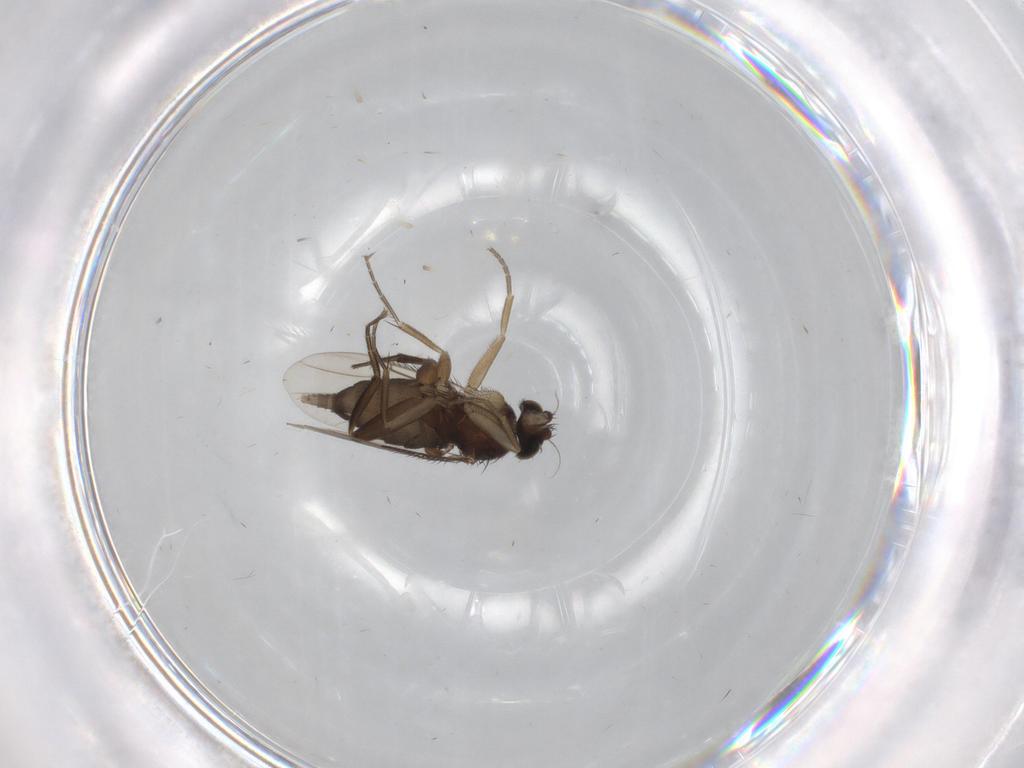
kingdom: Animalia
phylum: Arthropoda
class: Insecta
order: Diptera
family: Phoridae
